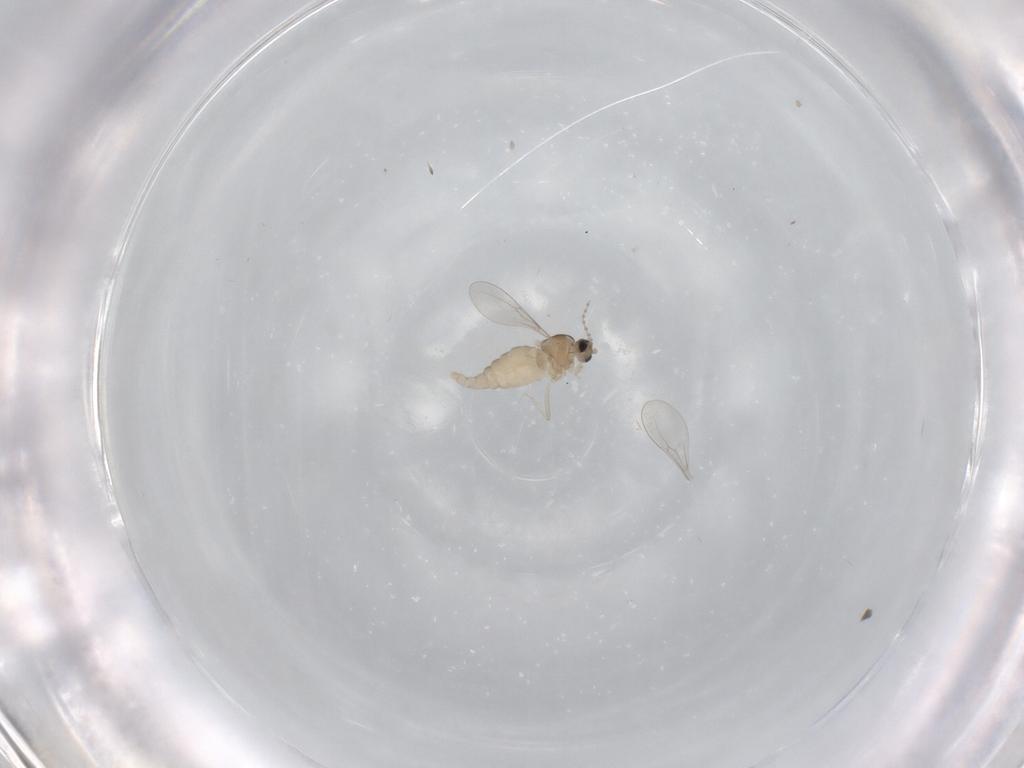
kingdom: Animalia
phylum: Arthropoda
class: Insecta
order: Diptera
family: Cecidomyiidae
